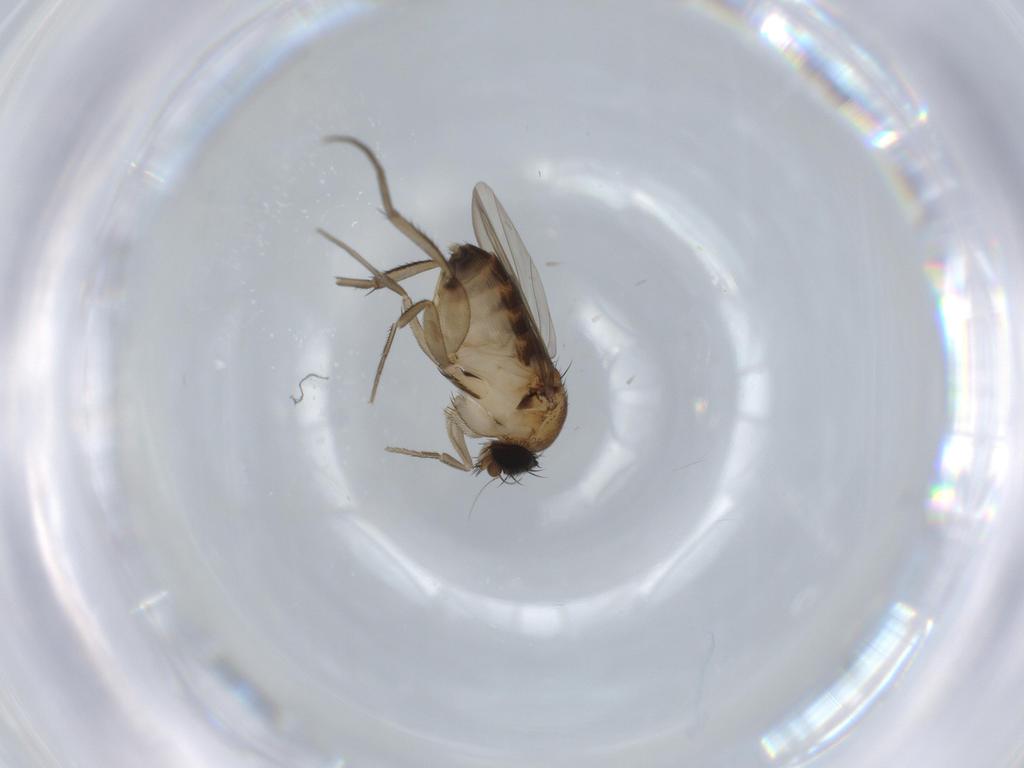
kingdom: Animalia
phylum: Arthropoda
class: Insecta
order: Diptera
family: Phoridae
